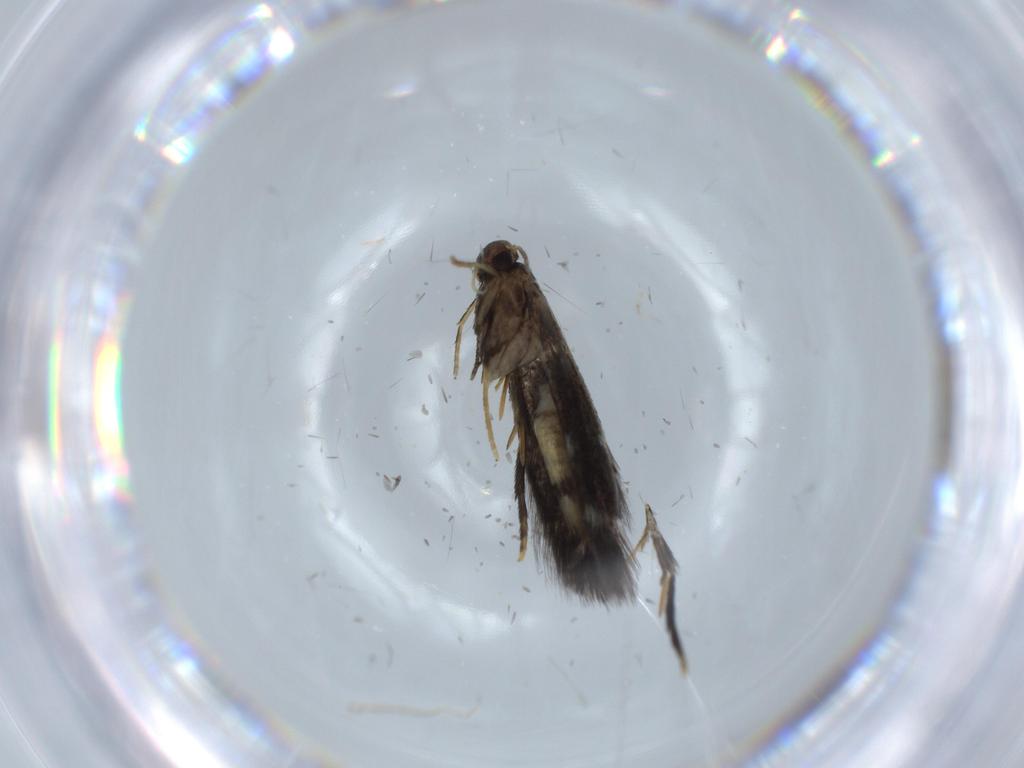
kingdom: Animalia
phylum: Arthropoda
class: Insecta
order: Lepidoptera
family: Heliozelidae
